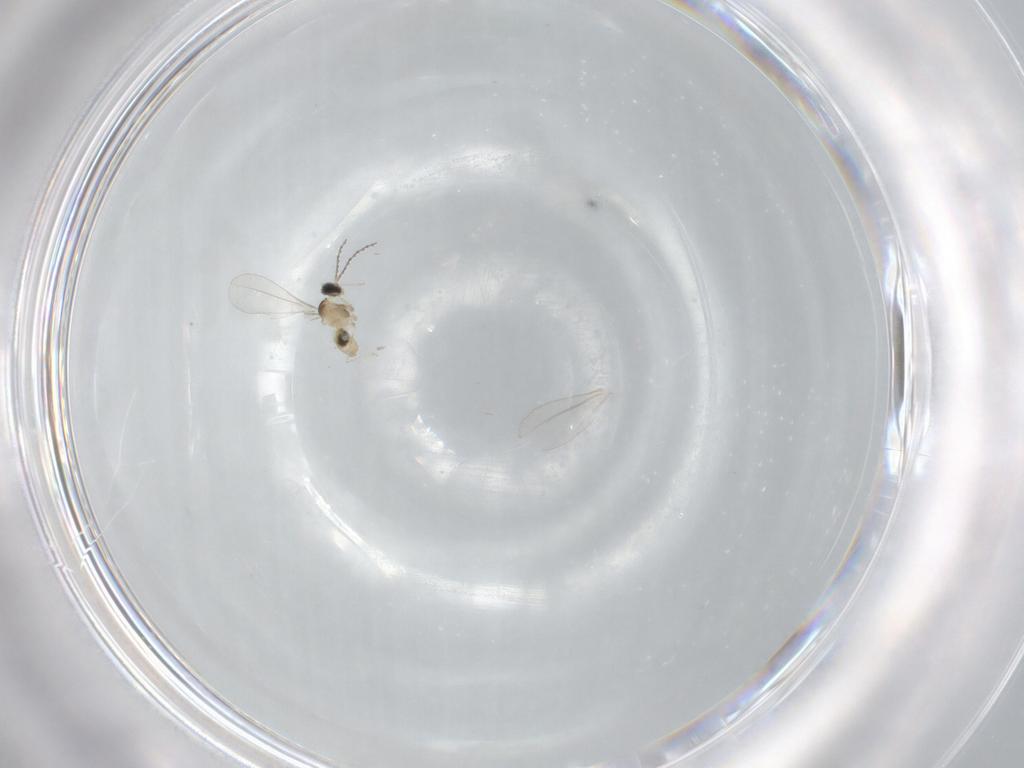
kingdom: Animalia
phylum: Arthropoda
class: Insecta
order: Diptera
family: Cecidomyiidae
